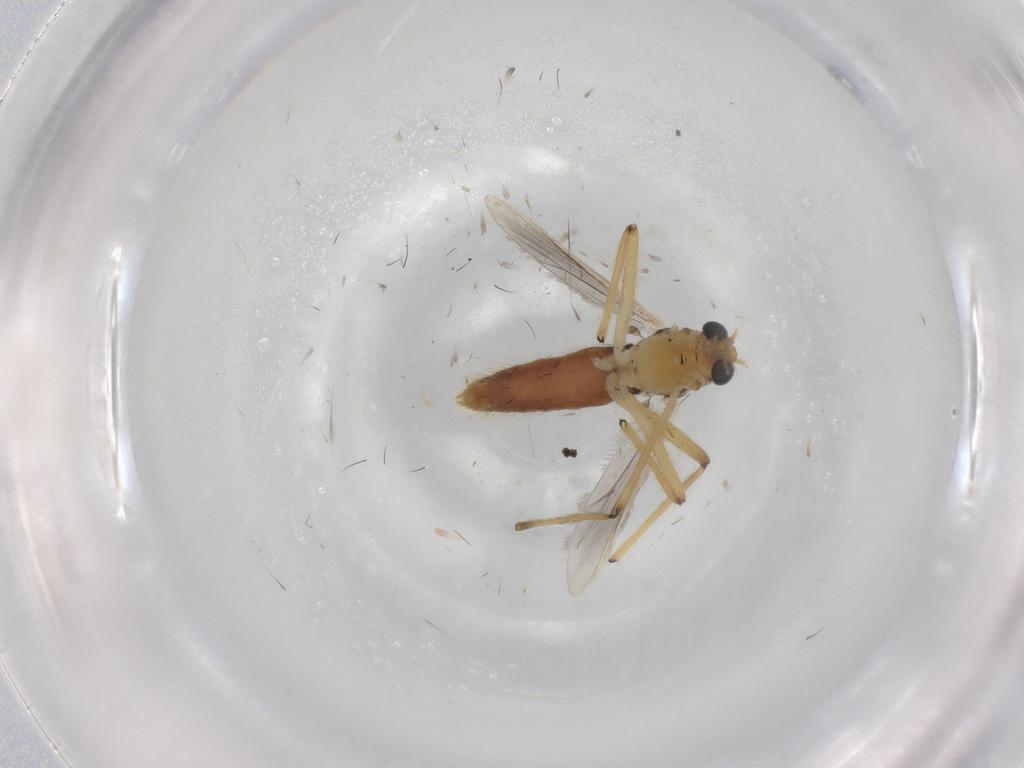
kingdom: Animalia
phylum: Arthropoda
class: Insecta
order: Diptera
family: Chironomidae
